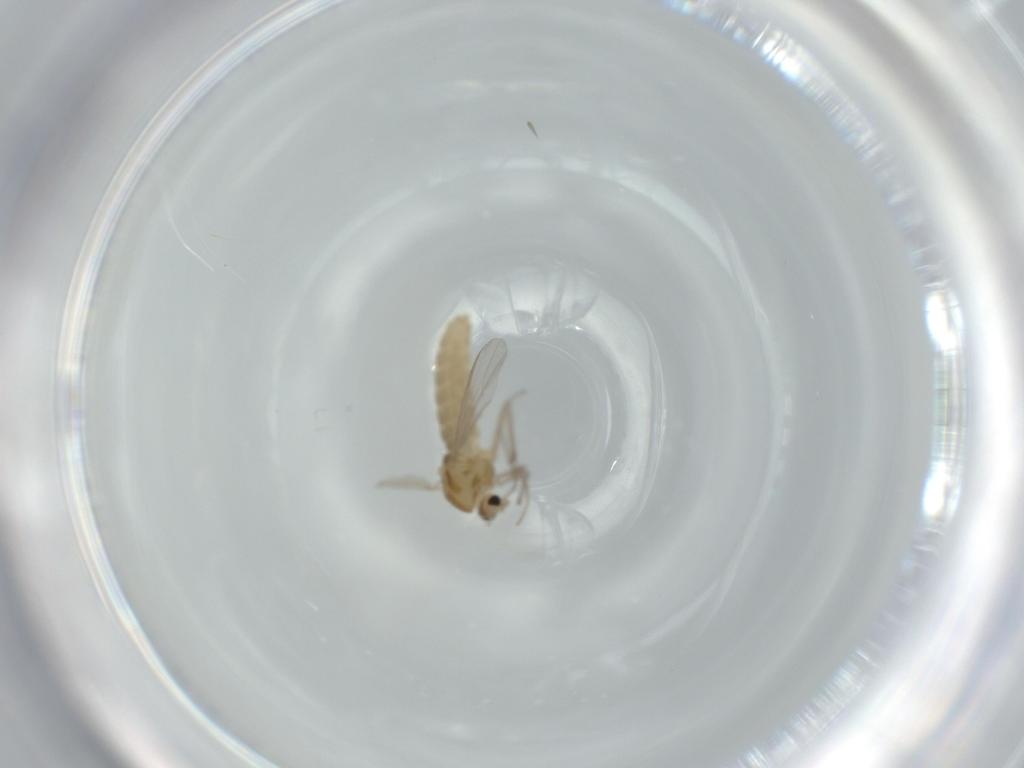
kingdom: Animalia
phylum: Arthropoda
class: Insecta
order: Diptera
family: Chironomidae
